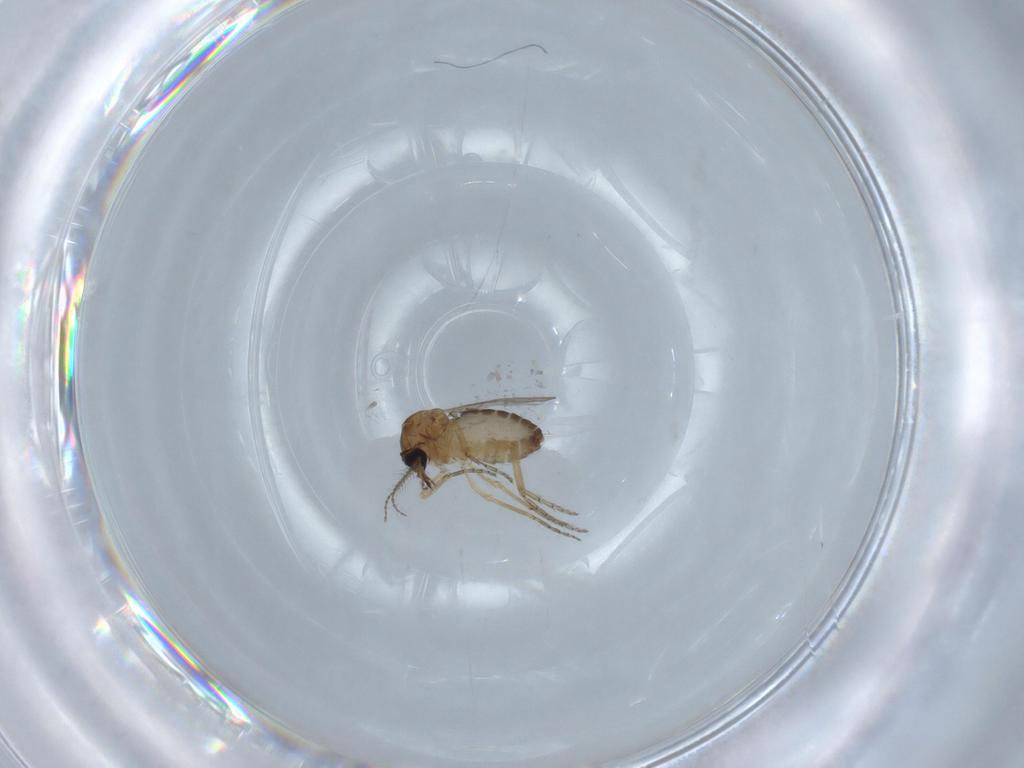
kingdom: Animalia
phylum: Arthropoda
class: Insecta
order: Diptera
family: Ceratopogonidae
